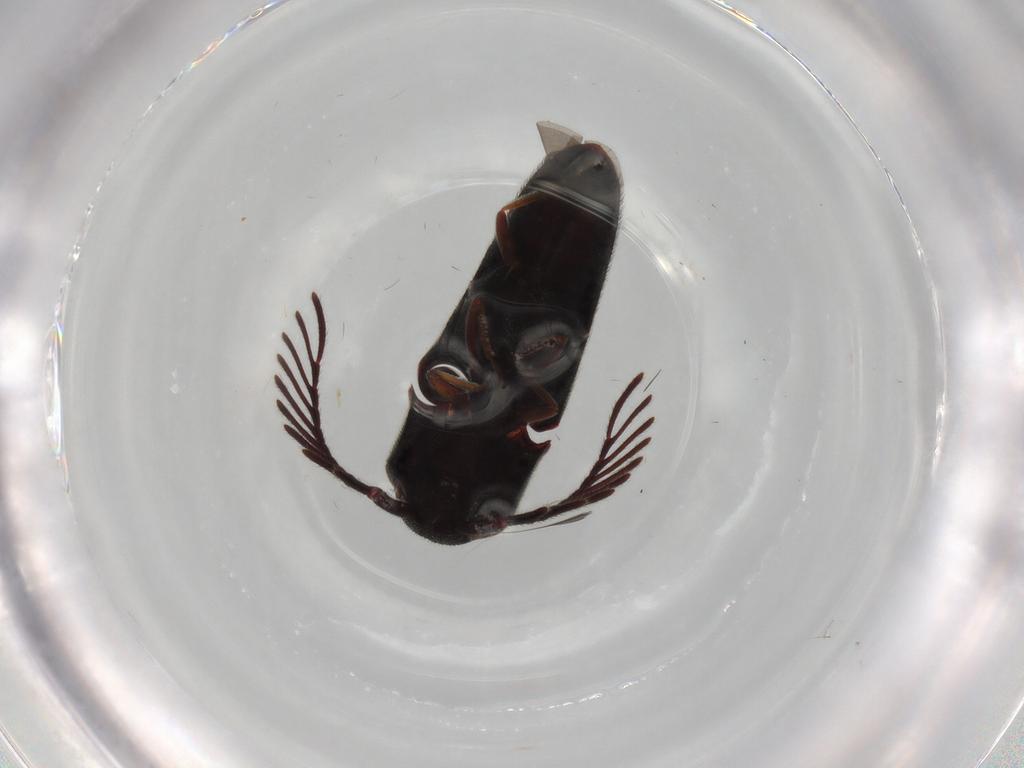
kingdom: Animalia
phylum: Arthropoda
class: Insecta
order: Coleoptera
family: Eucnemidae
